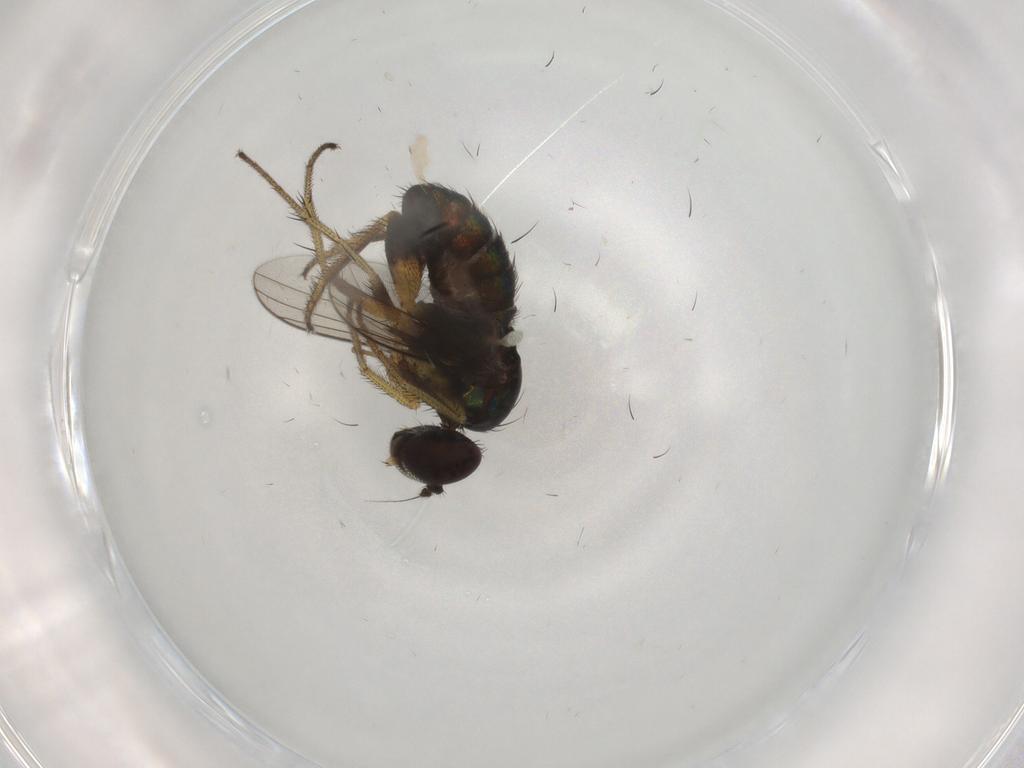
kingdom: Animalia
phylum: Arthropoda
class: Insecta
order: Diptera
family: Dolichopodidae
